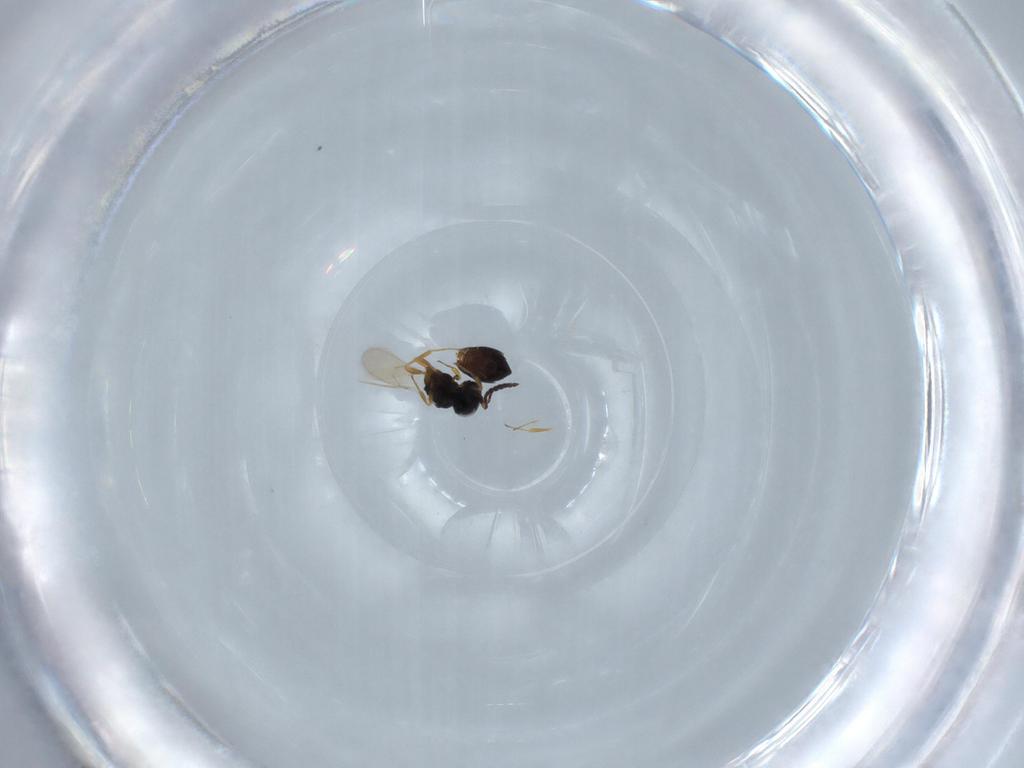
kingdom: Animalia
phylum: Arthropoda
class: Insecta
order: Hymenoptera
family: Scelionidae
